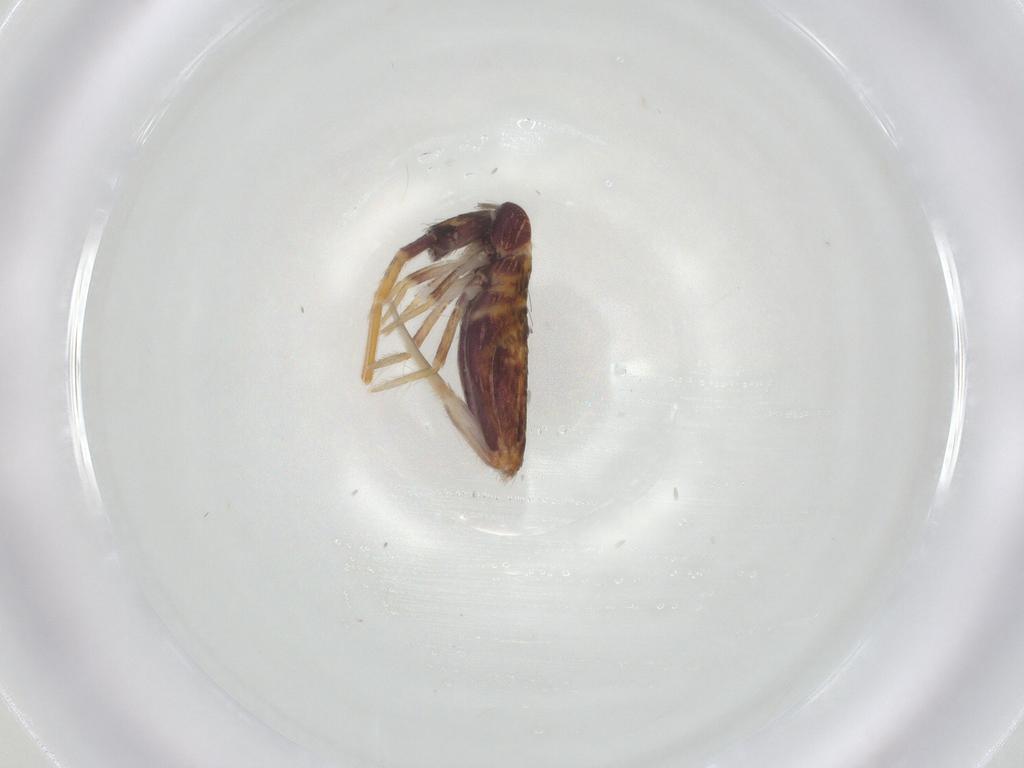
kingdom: Animalia
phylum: Arthropoda
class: Collembola
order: Entomobryomorpha
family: Entomobryidae
